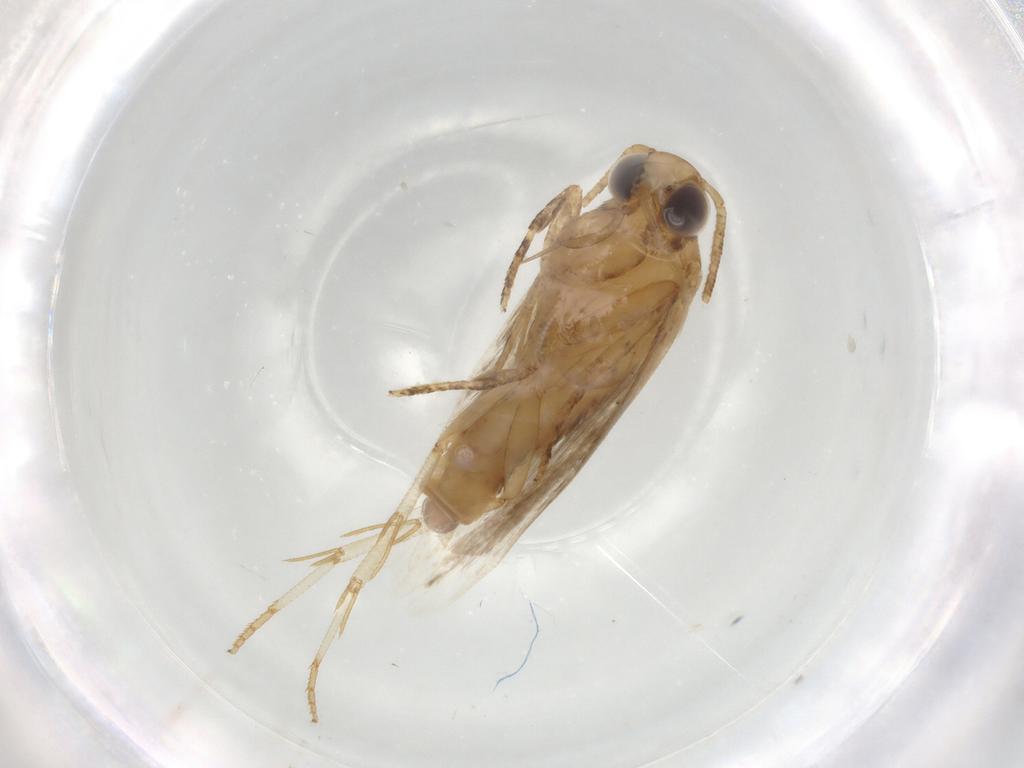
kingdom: Animalia
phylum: Arthropoda
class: Insecta
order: Lepidoptera
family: Gelechiidae
